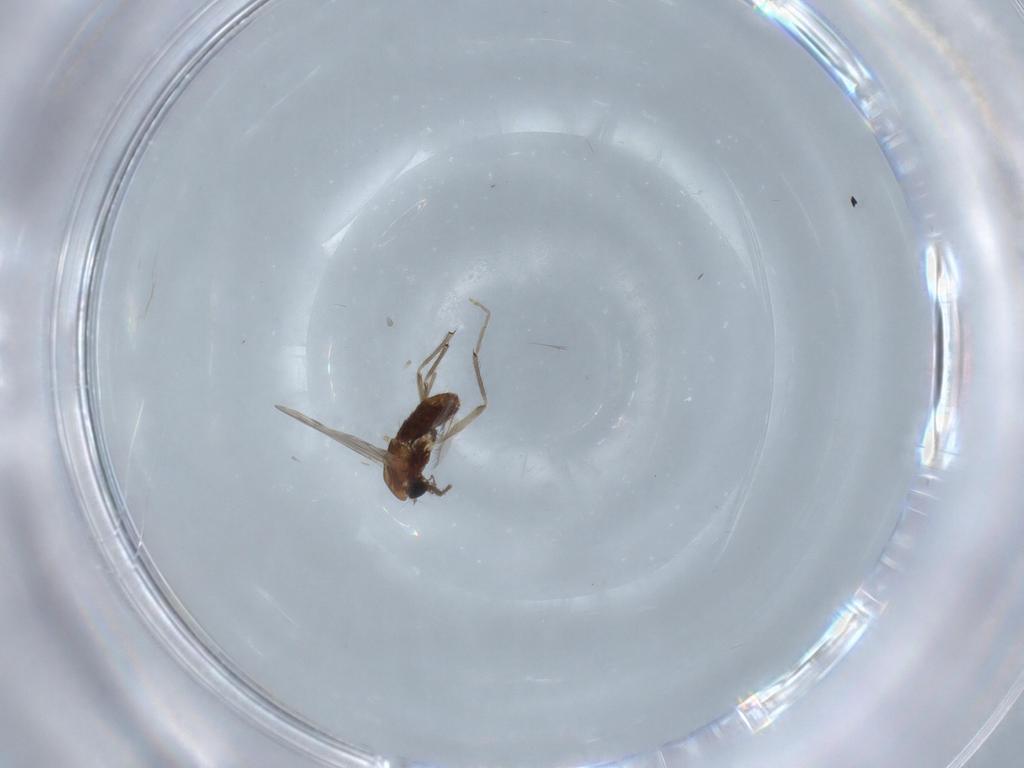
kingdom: Animalia
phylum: Arthropoda
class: Insecta
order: Diptera
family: Chironomidae
